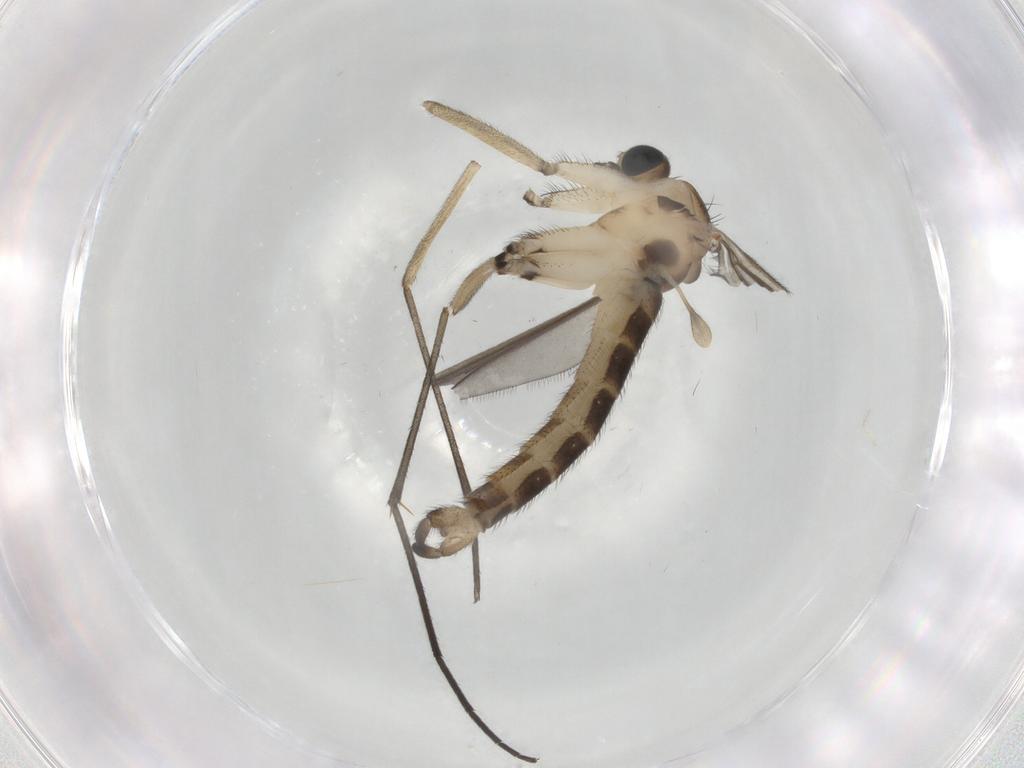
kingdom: Animalia
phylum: Arthropoda
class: Insecta
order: Diptera
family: Sciaridae
